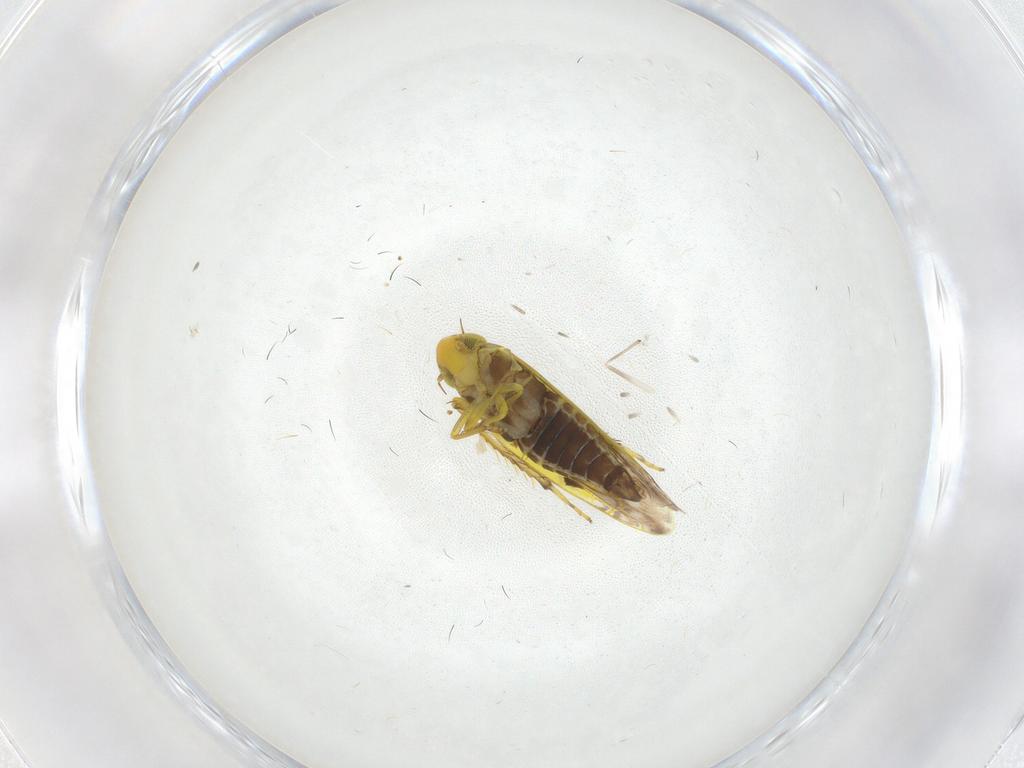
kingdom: Animalia
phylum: Arthropoda
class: Insecta
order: Hemiptera
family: Cicadellidae
